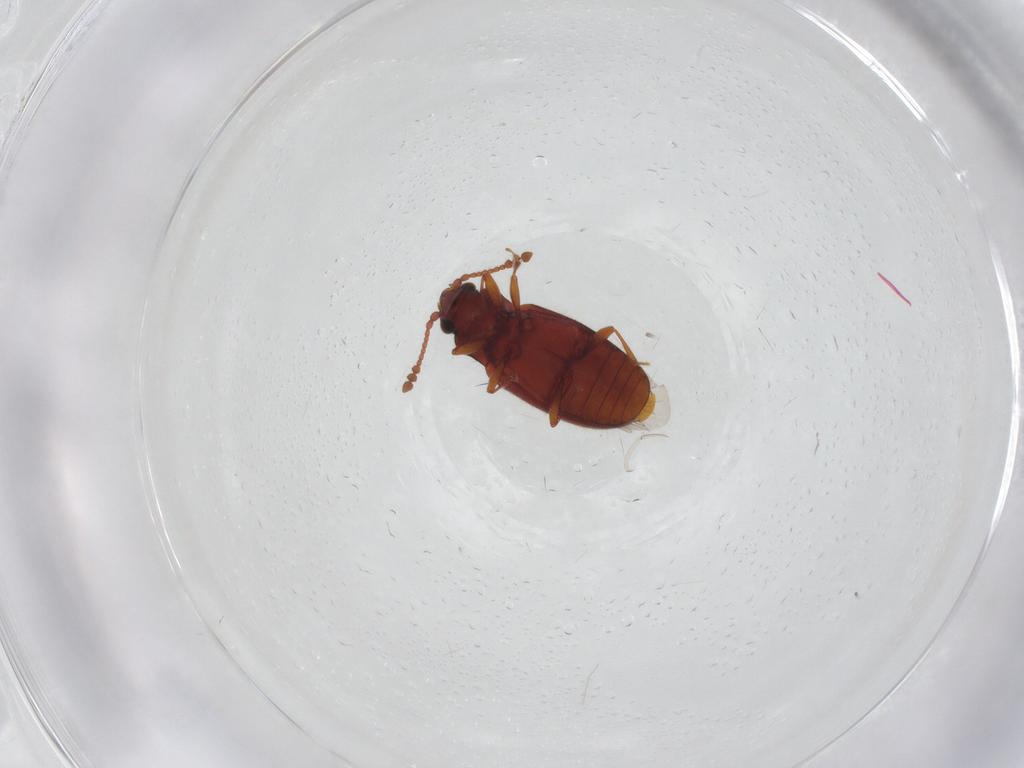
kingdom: Animalia
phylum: Arthropoda
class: Insecta
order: Coleoptera
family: Cryptophagidae
